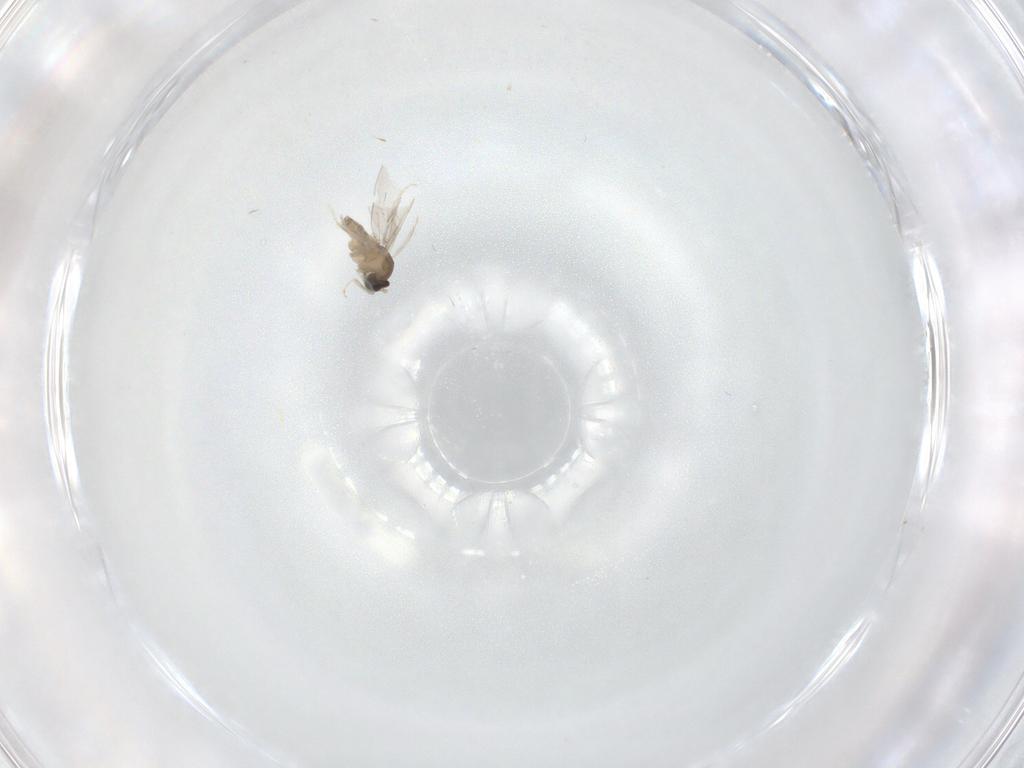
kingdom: Animalia
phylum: Arthropoda
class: Insecta
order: Diptera
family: Cecidomyiidae
